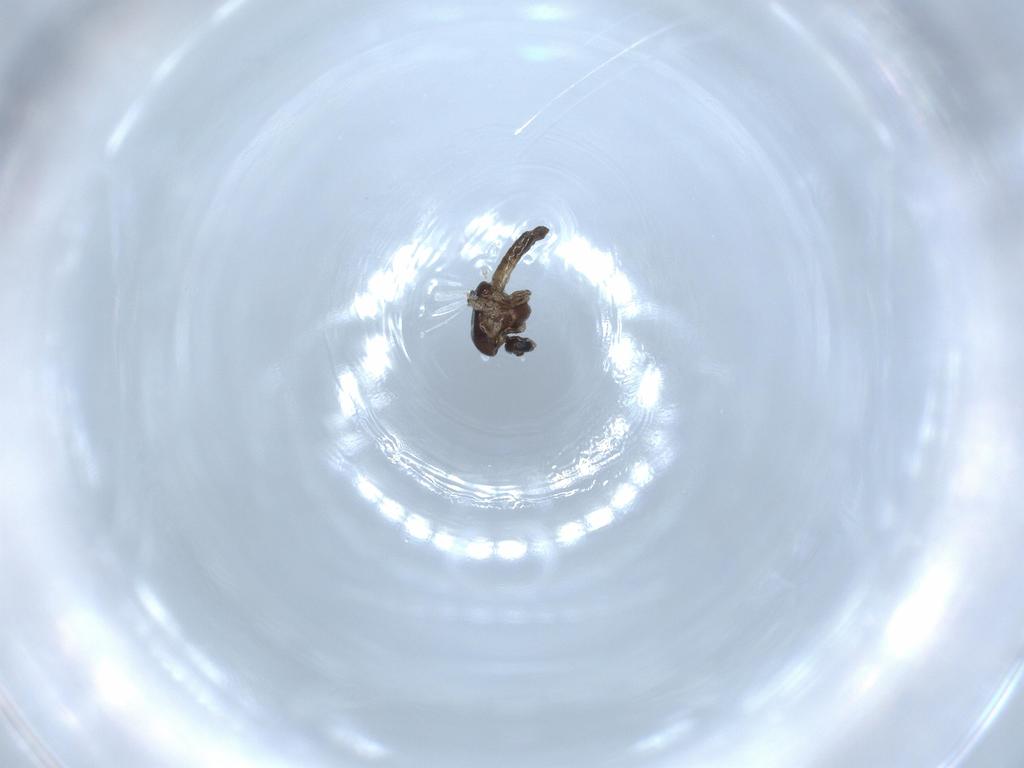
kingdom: Animalia
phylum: Arthropoda
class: Insecta
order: Diptera
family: Chironomidae
